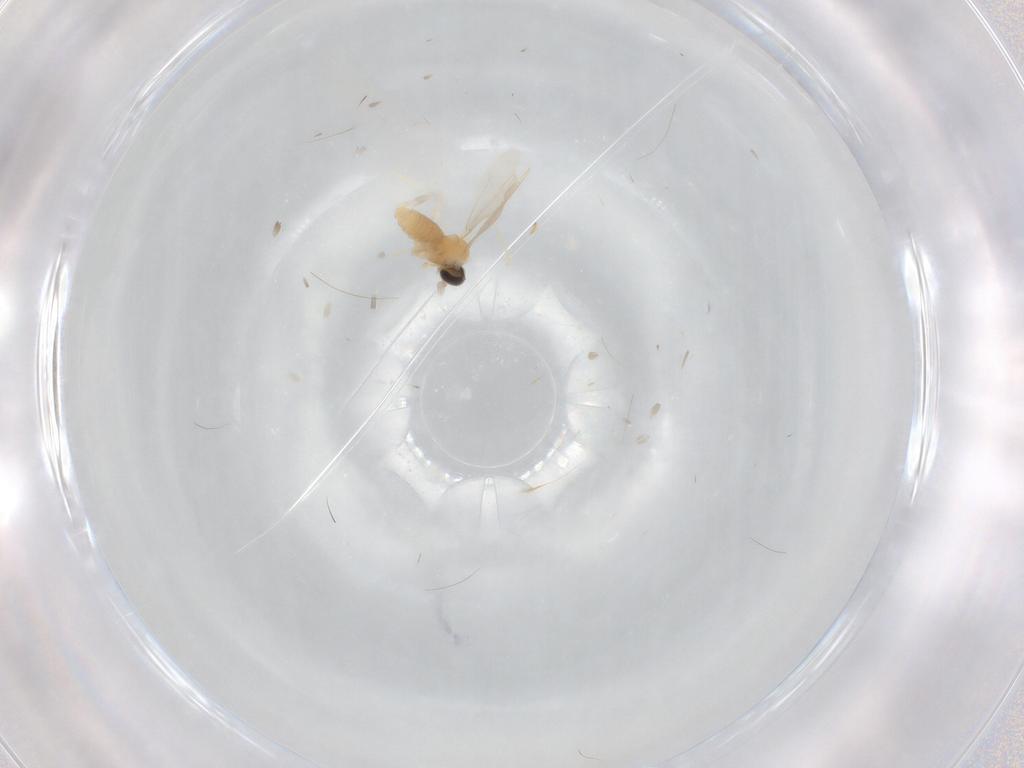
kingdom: Animalia
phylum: Arthropoda
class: Insecta
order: Diptera
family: Cecidomyiidae
